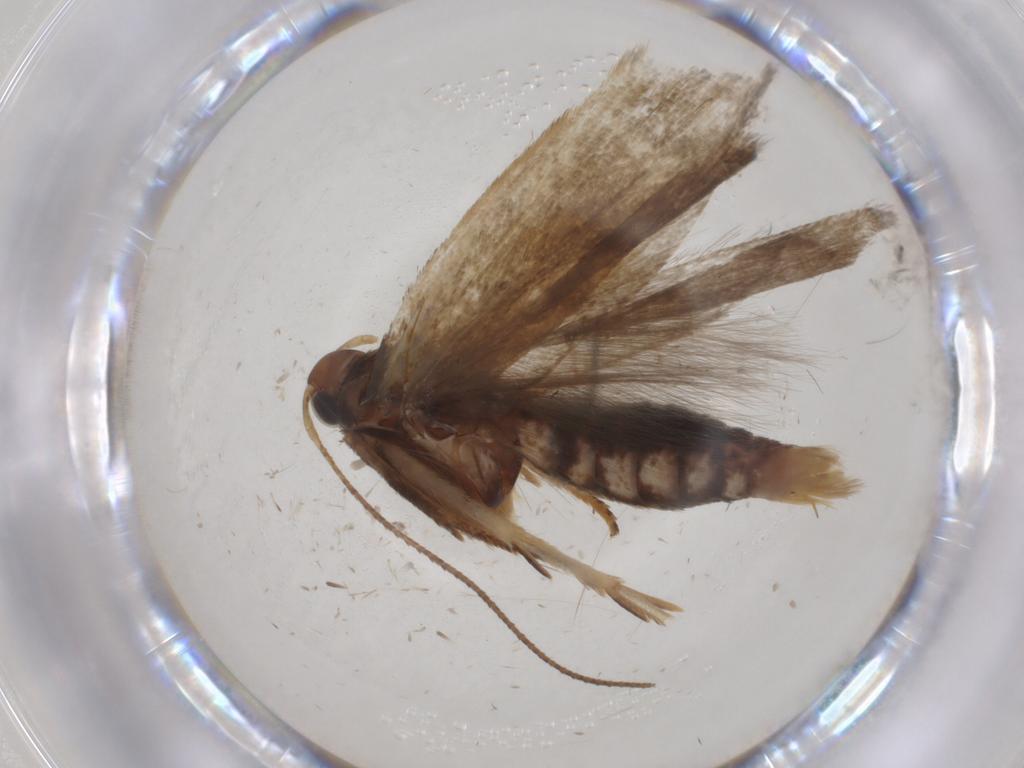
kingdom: Animalia
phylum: Arthropoda
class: Insecta
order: Lepidoptera
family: Gelechiidae
